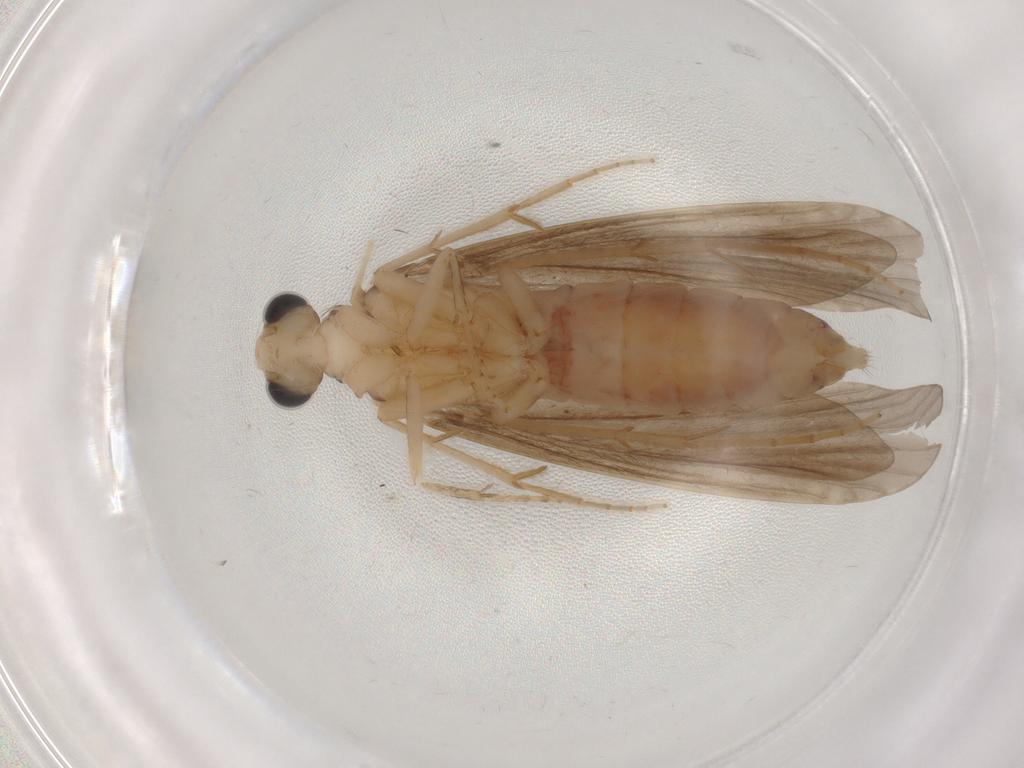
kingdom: Animalia
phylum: Arthropoda
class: Insecta
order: Trichoptera
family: Ecnomidae
